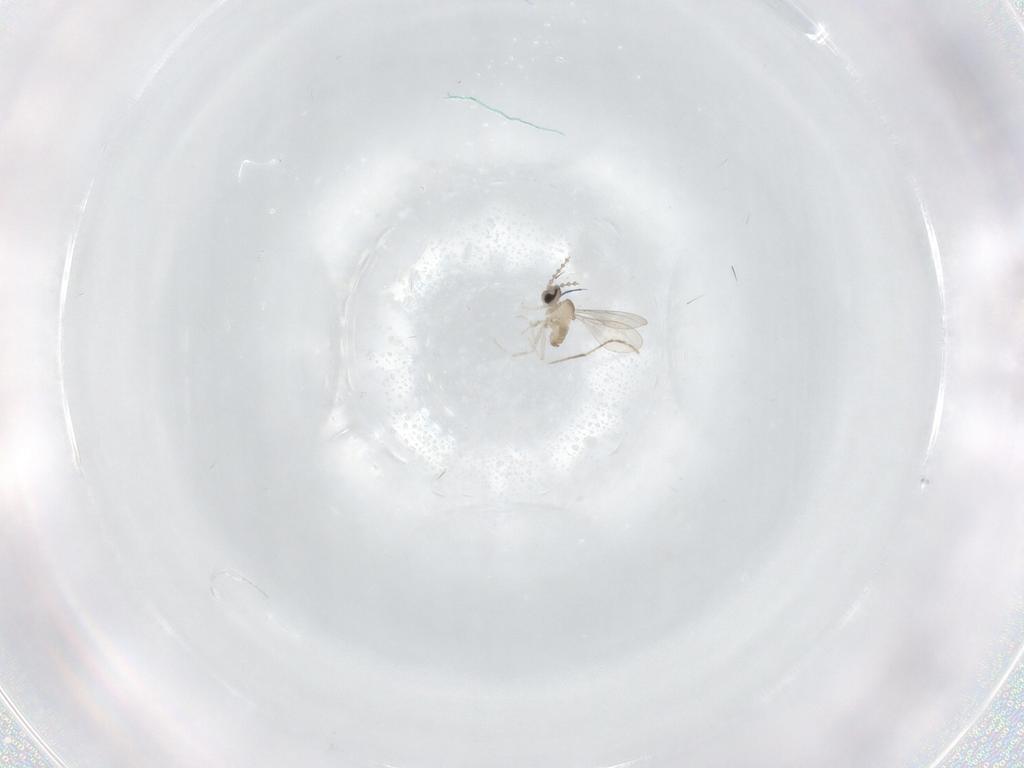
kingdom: Animalia
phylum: Arthropoda
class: Insecta
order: Diptera
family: Cecidomyiidae
